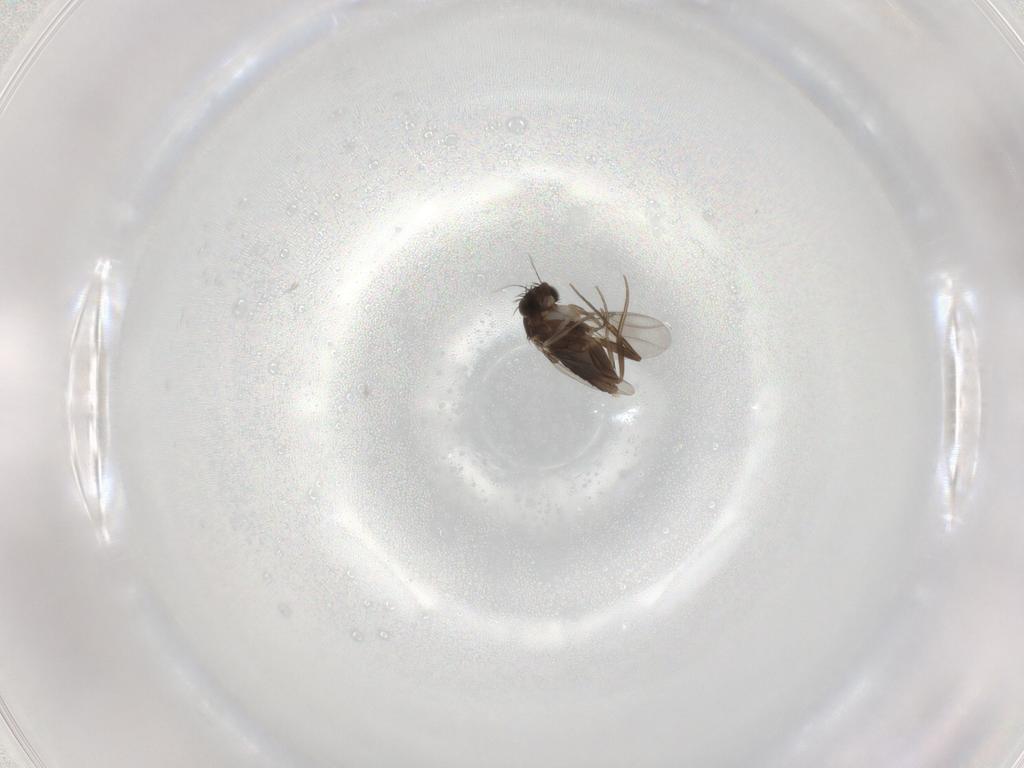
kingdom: Animalia
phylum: Arthropoda
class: Insecta
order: Diptera
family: Phoridae
